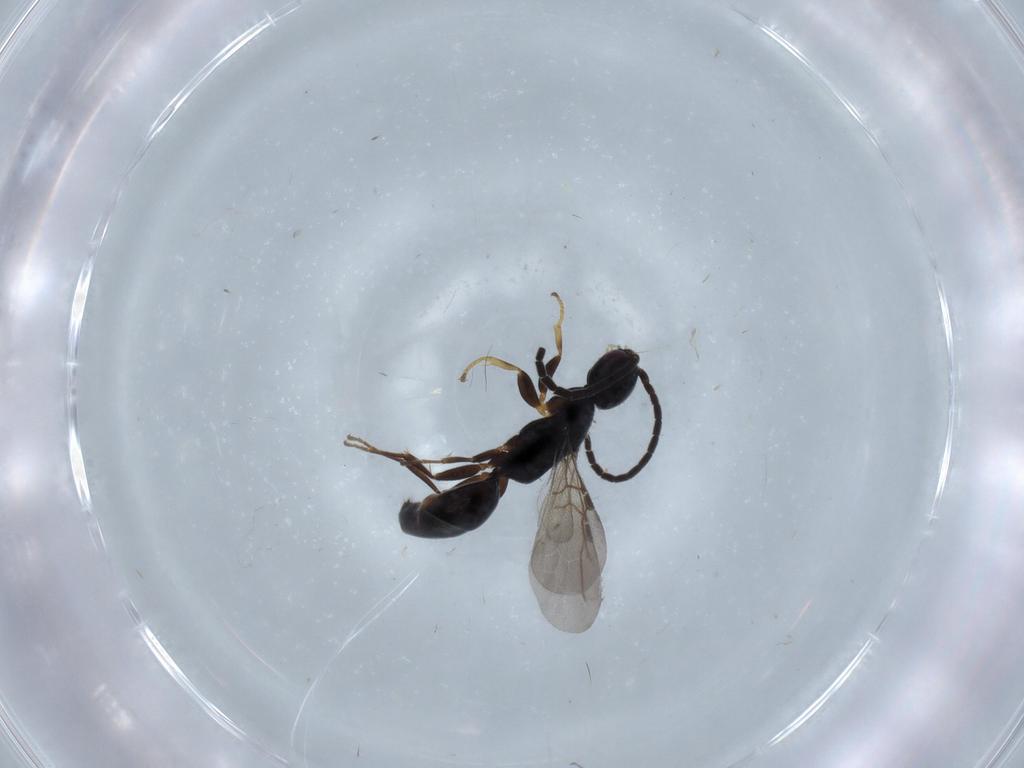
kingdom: Animalia
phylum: Arthropoda
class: Insecta
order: Hymenoptera
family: Bethylidae
